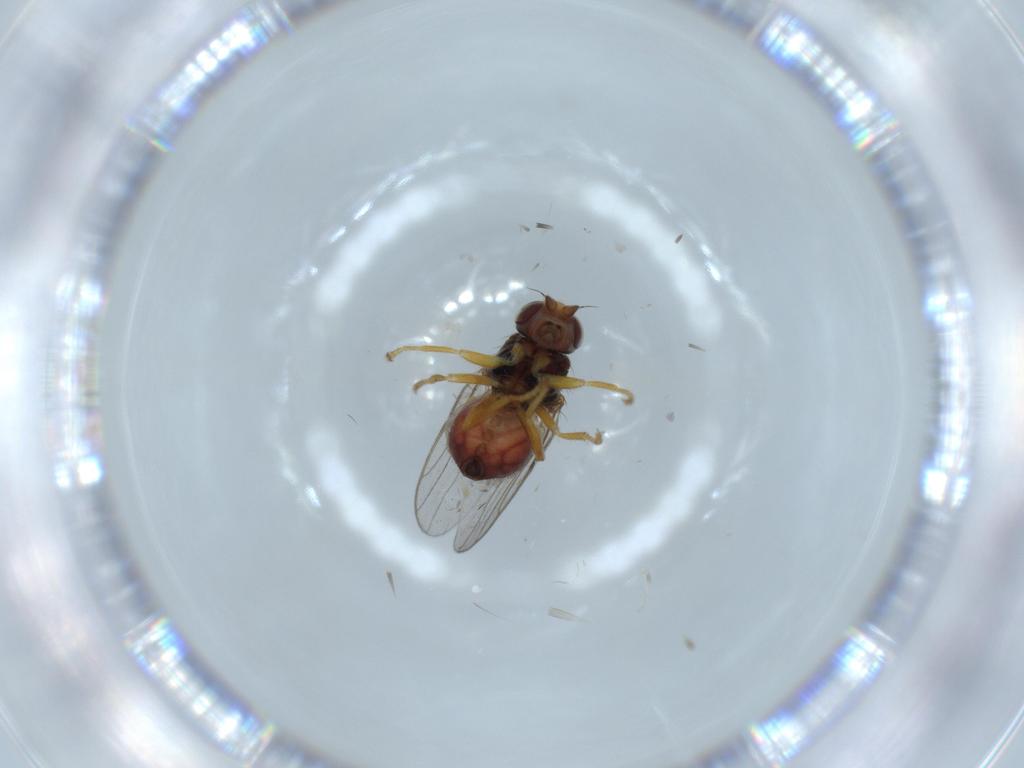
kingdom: Animalia
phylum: Arthropoda
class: Insecta
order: Diptera
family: Chloropidae
